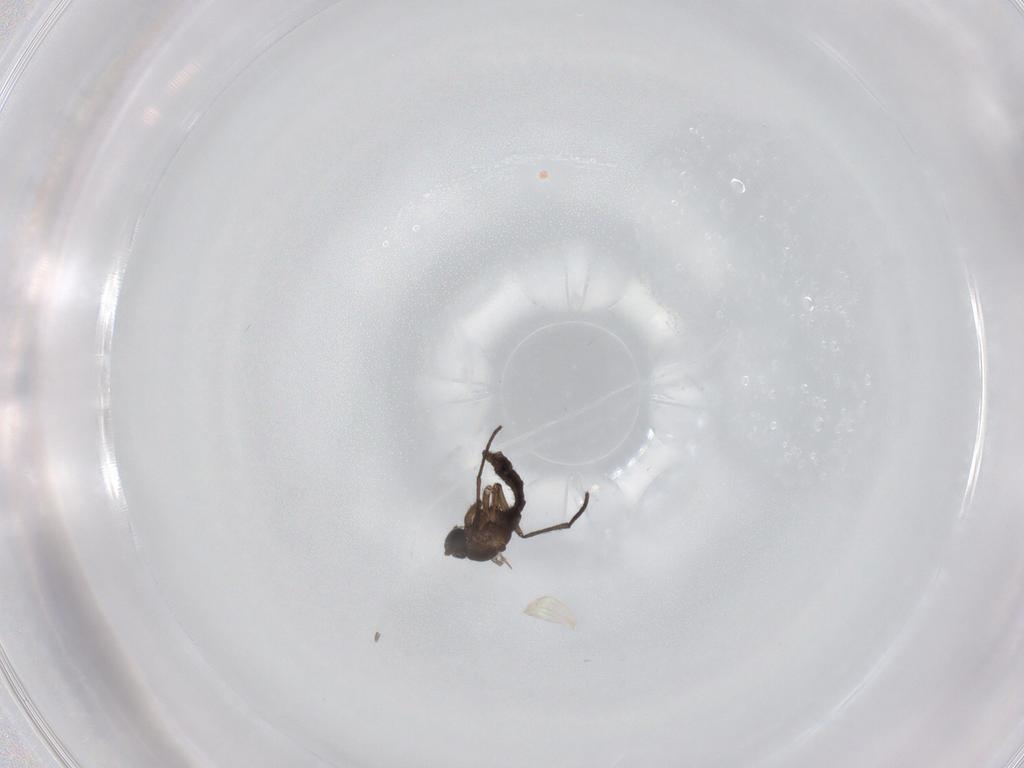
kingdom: Animalia
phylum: Arthropoda
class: Insecta
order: Diptera
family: Sciaridae
